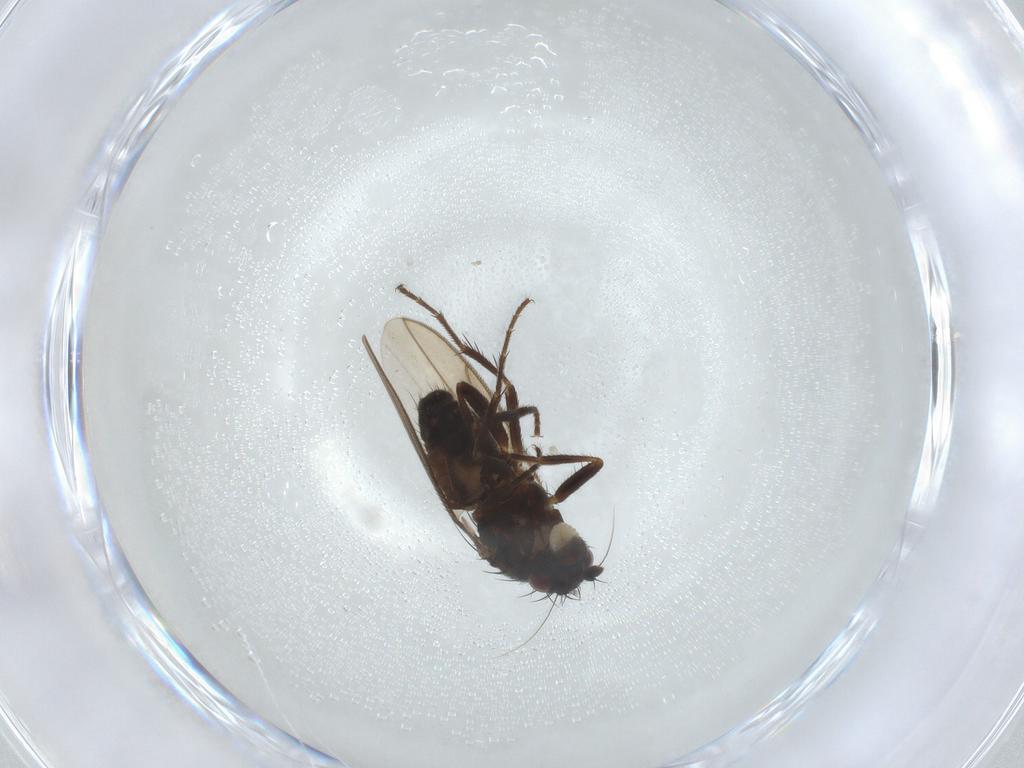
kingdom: Animalia
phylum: Arthropoda
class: Insecta
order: Diptera
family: Sphaeroceridae
